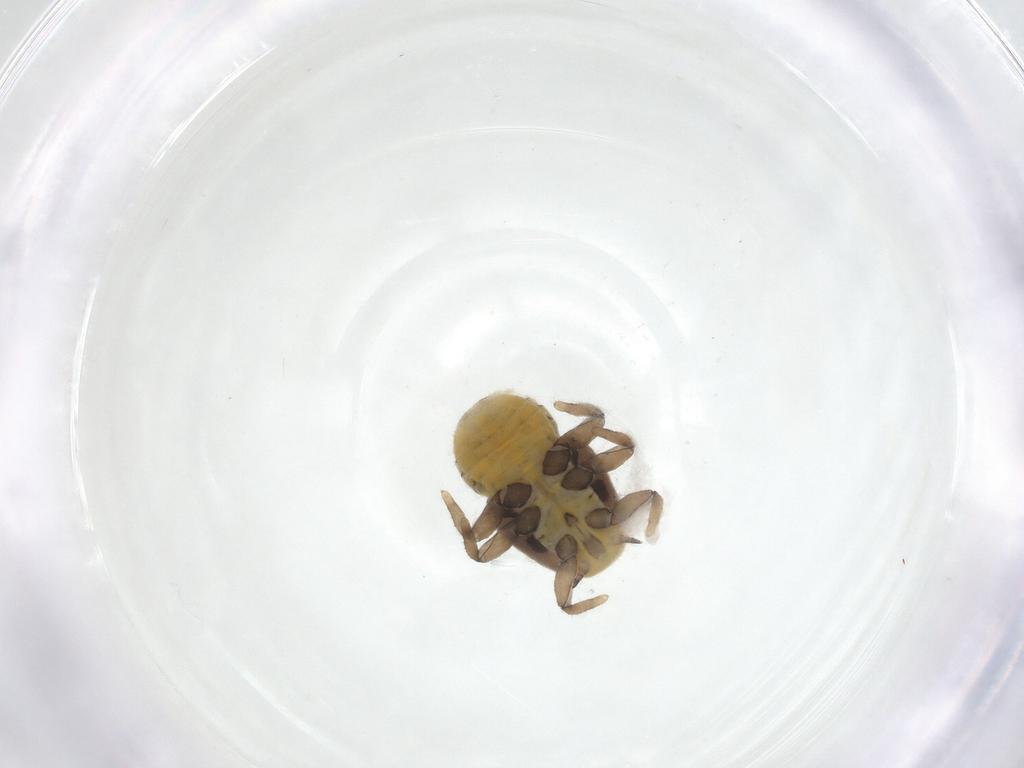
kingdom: Animalia
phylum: Arthropoda
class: Insecta
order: Hemiptera
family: Triozidae
